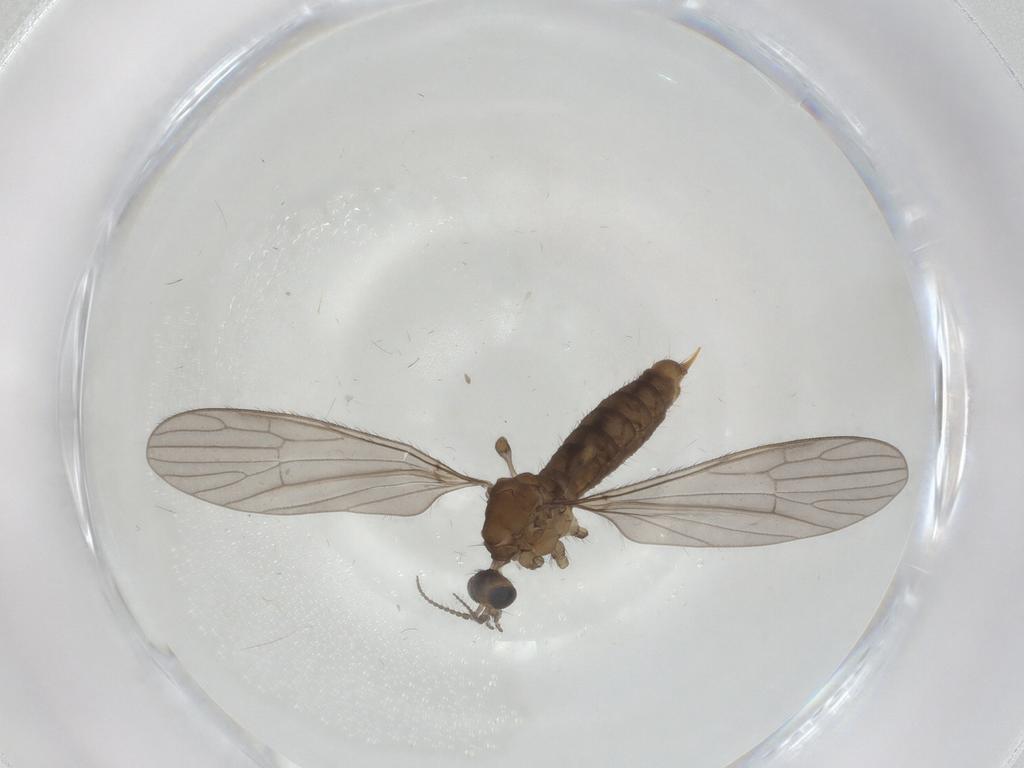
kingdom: Animalia
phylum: Arthropoda
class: Insecta
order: Diptera
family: Limoniidae
